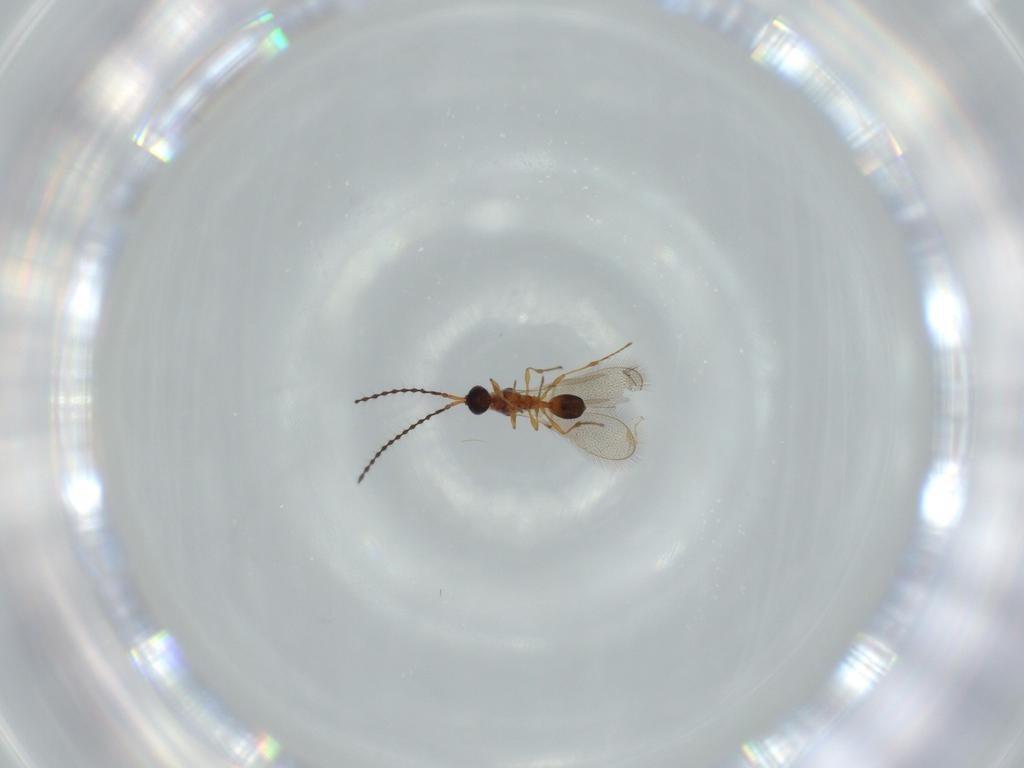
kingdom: Animalia
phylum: Arthropoda
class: Insecta
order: Hymenoptera
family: Diapriidae
